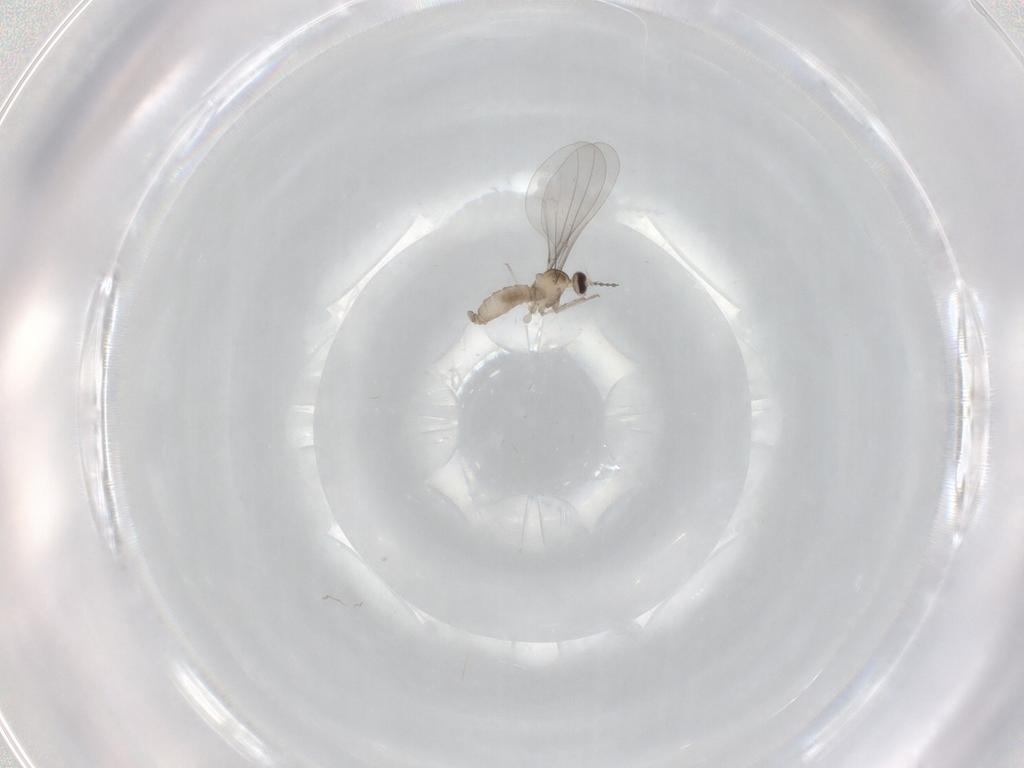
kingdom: Animalia
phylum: Arthropoda
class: Insecta
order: Diptera
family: Cecidomyiidae
